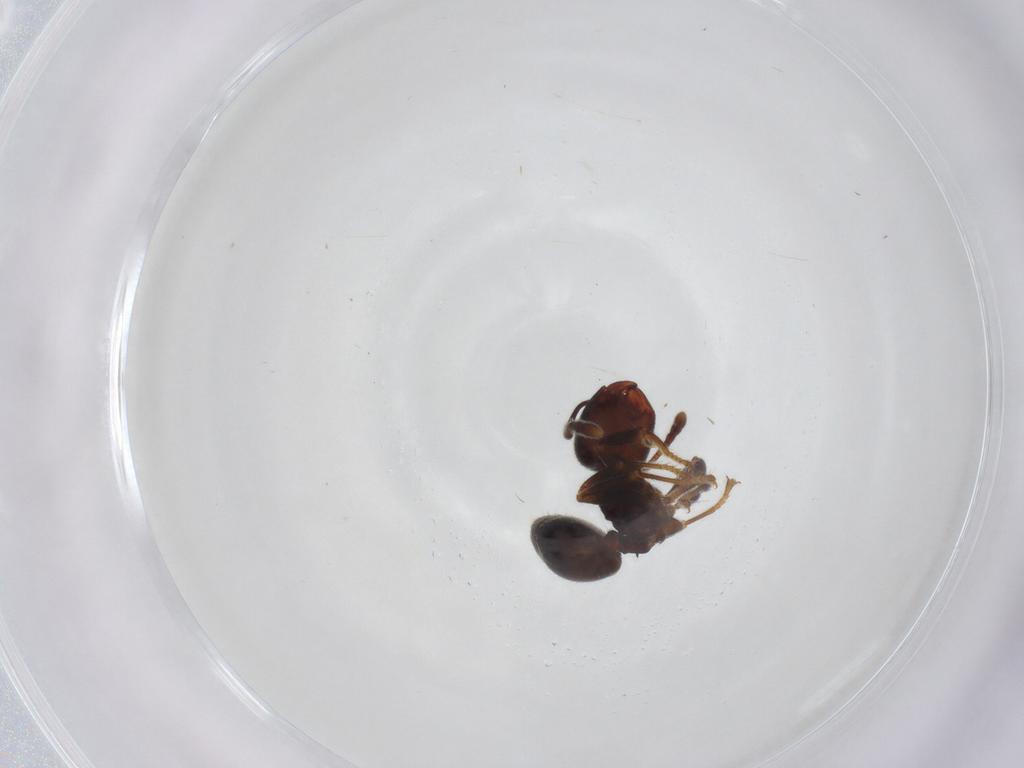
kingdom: Animalia
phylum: Arthropoda
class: Insecta
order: Hymenoptera
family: Formicidae
